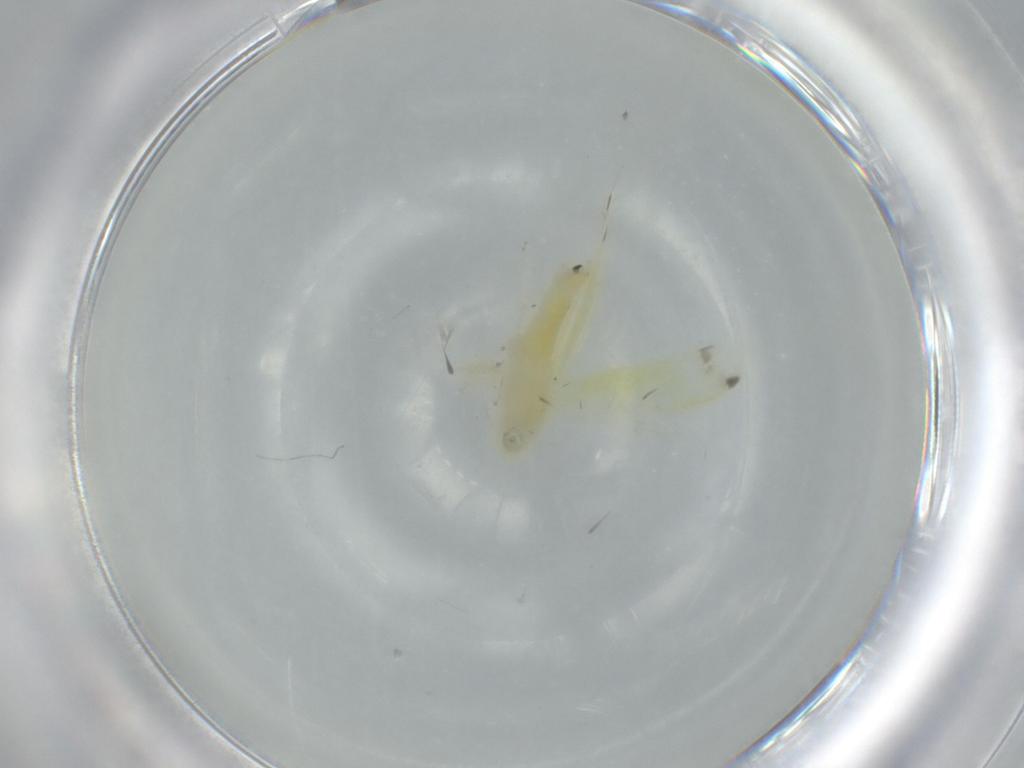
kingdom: Animalia
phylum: Arthropoda
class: Insecta
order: Hemiptera
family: Cicadellidae
